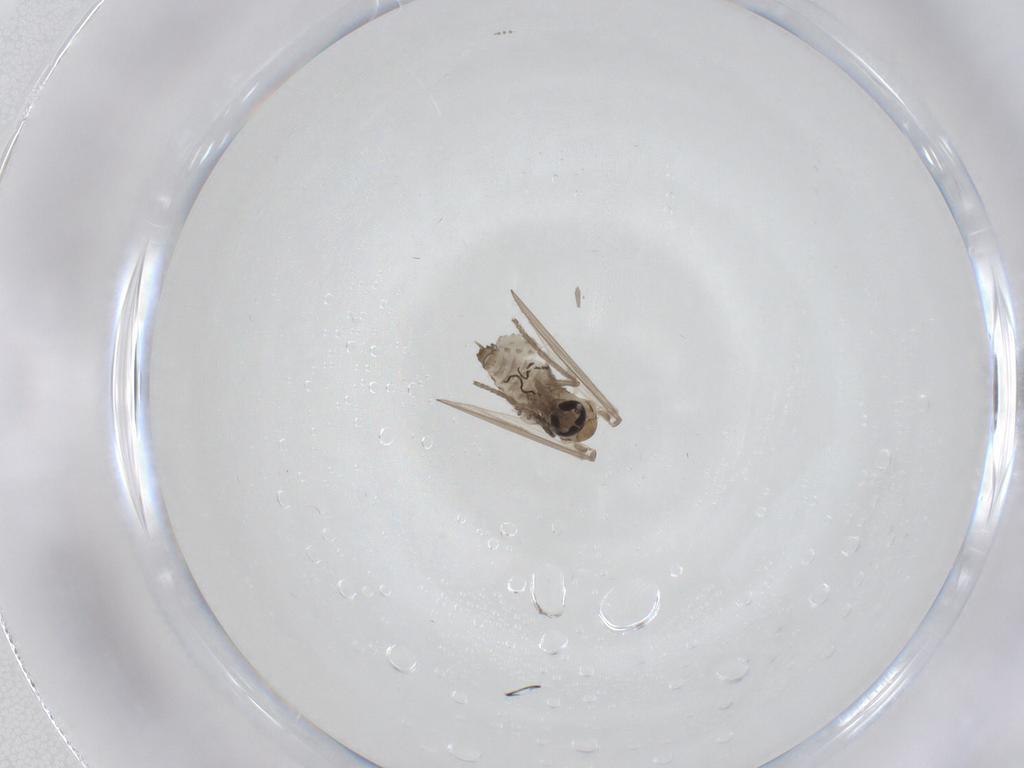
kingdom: Animalia
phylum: Arthropoda
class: Insecta
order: Diptera
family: Psychodidae
